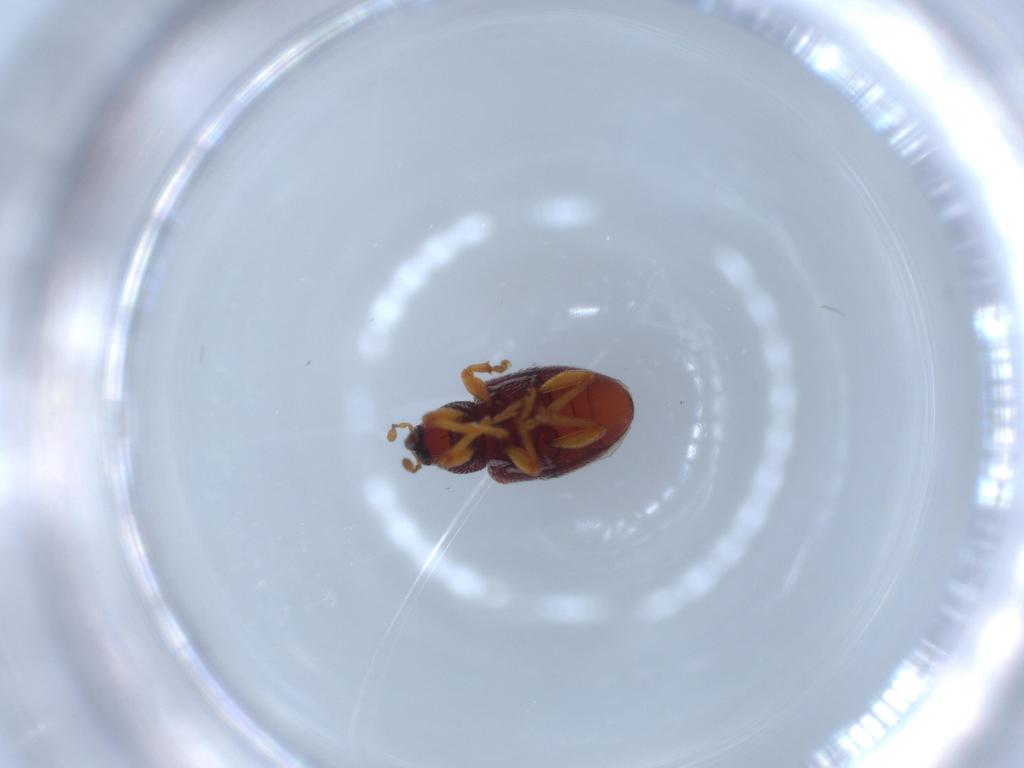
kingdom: Animalia
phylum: Arthropoda
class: Insecta
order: Coleoptera
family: Curculionidae
